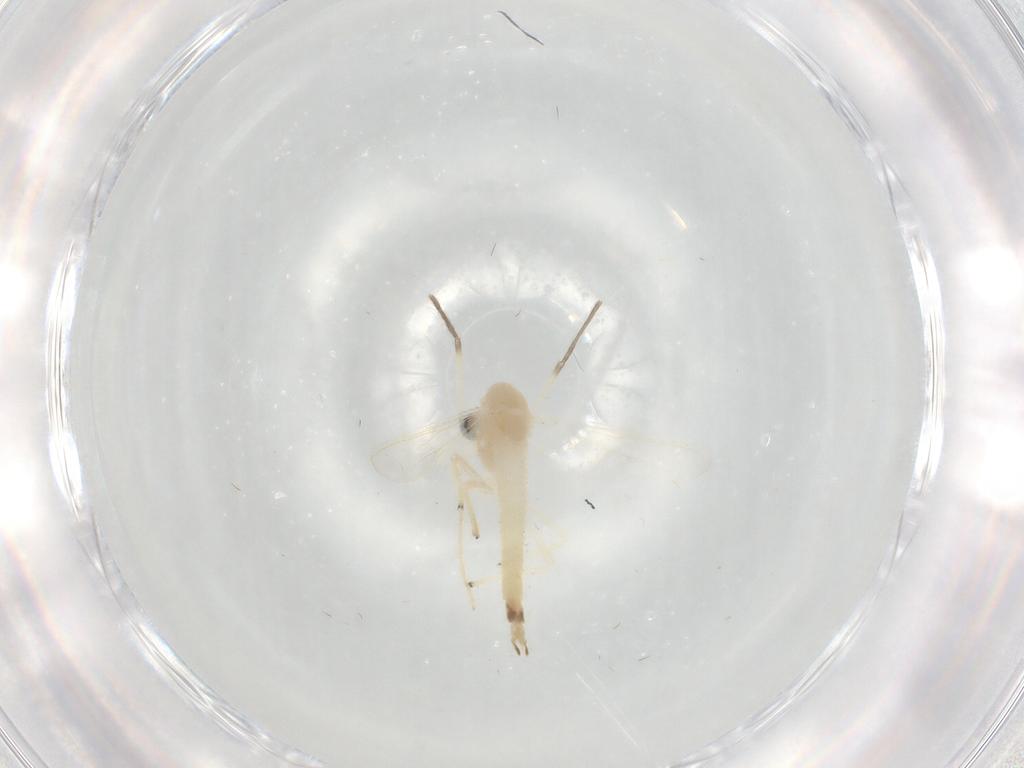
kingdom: Animalia
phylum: Arthropoda
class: Insecta
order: Diptera
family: Chironomidae
